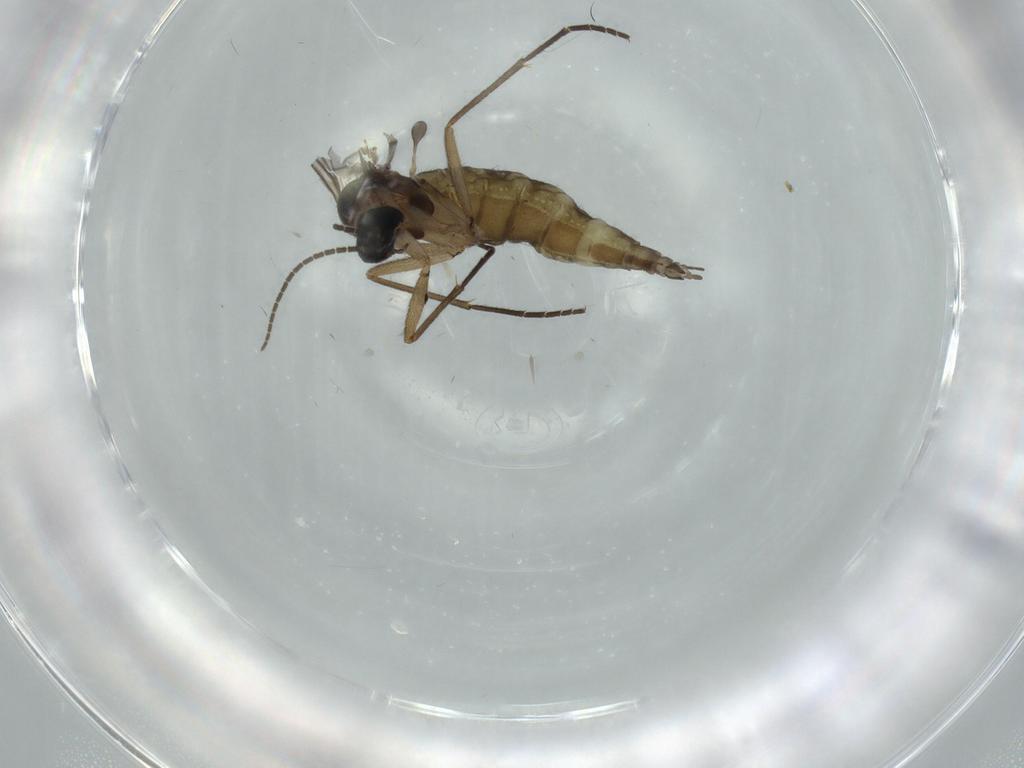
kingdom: Animalia
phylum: Arthropoda
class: Insecta
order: Diptera
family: Sciaridae
